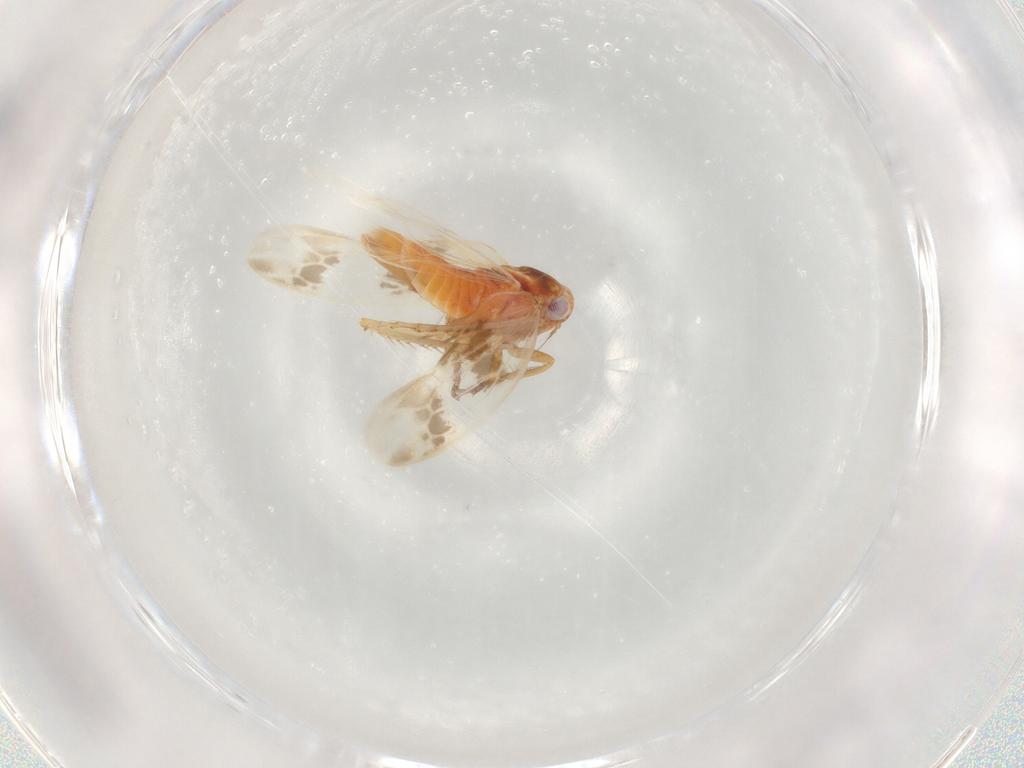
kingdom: Animalia
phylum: Arthropoda
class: Insecta
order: Hemiptera
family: Cicadellidae
